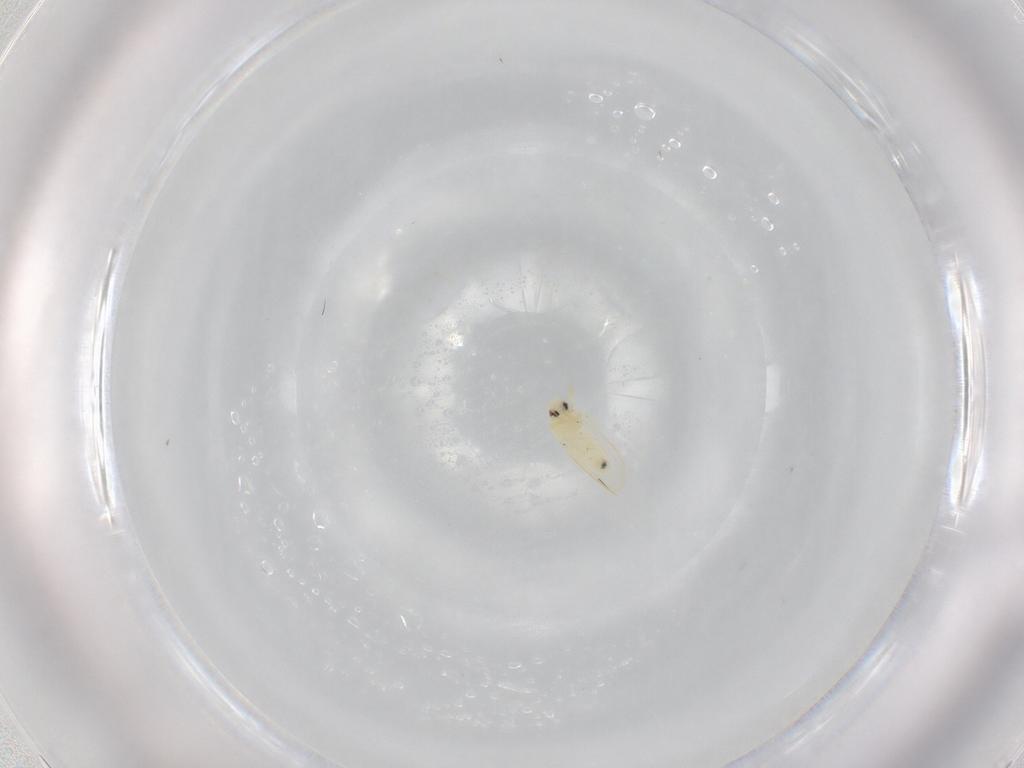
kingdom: Animalia
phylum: Arthropoda
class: Insecta
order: Hemiptera
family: Aleyrodidae
